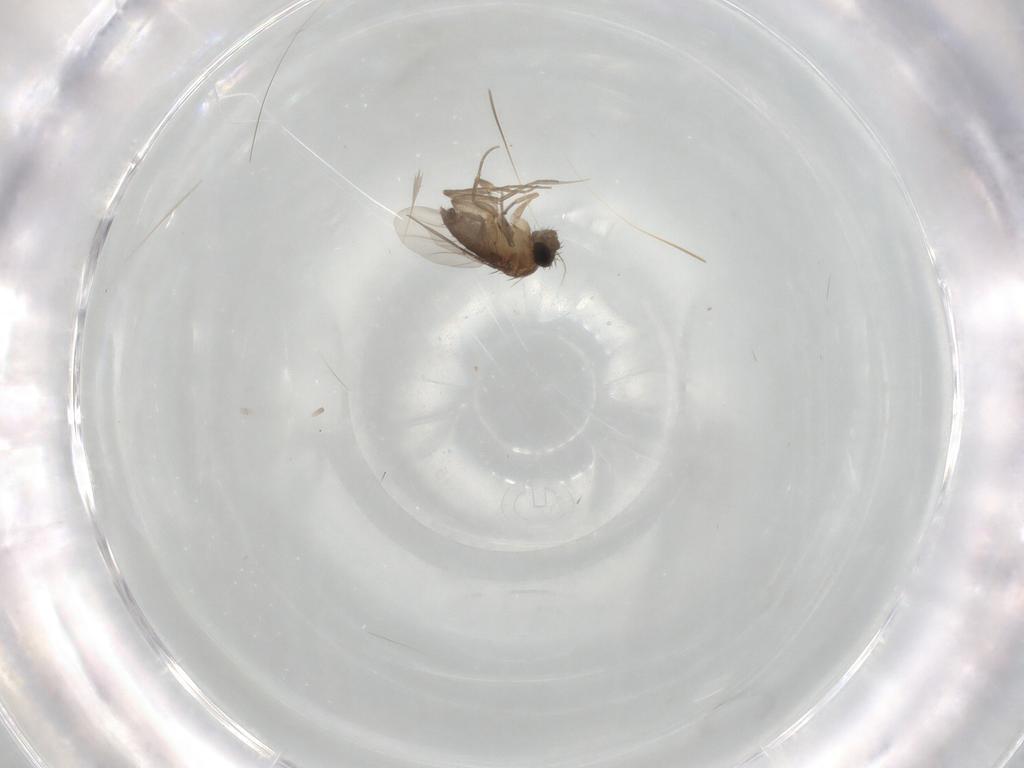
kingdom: Animalia
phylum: Arthropoda
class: Insecta
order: Diptera
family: Phoridae
